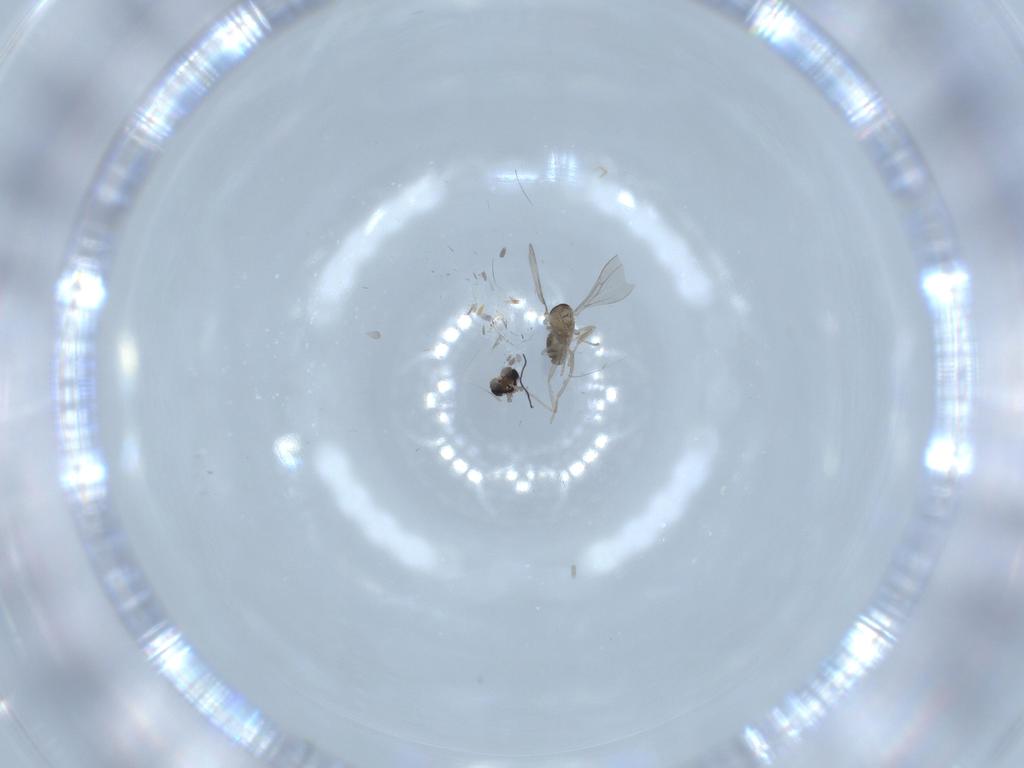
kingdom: Animalia
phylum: Arthropoda
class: Insecta
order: Diptera
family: Cecidomyiidae
